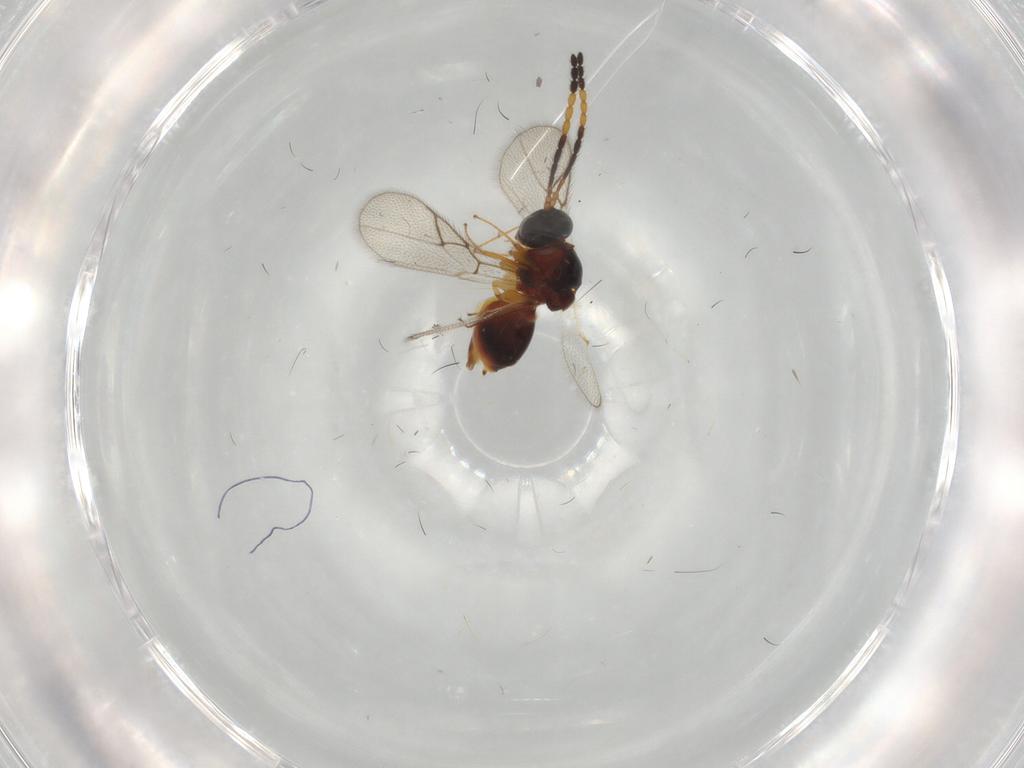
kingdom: Animalia
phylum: Arthropoda
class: Insecta
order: Hymenoptera
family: Figitidae
